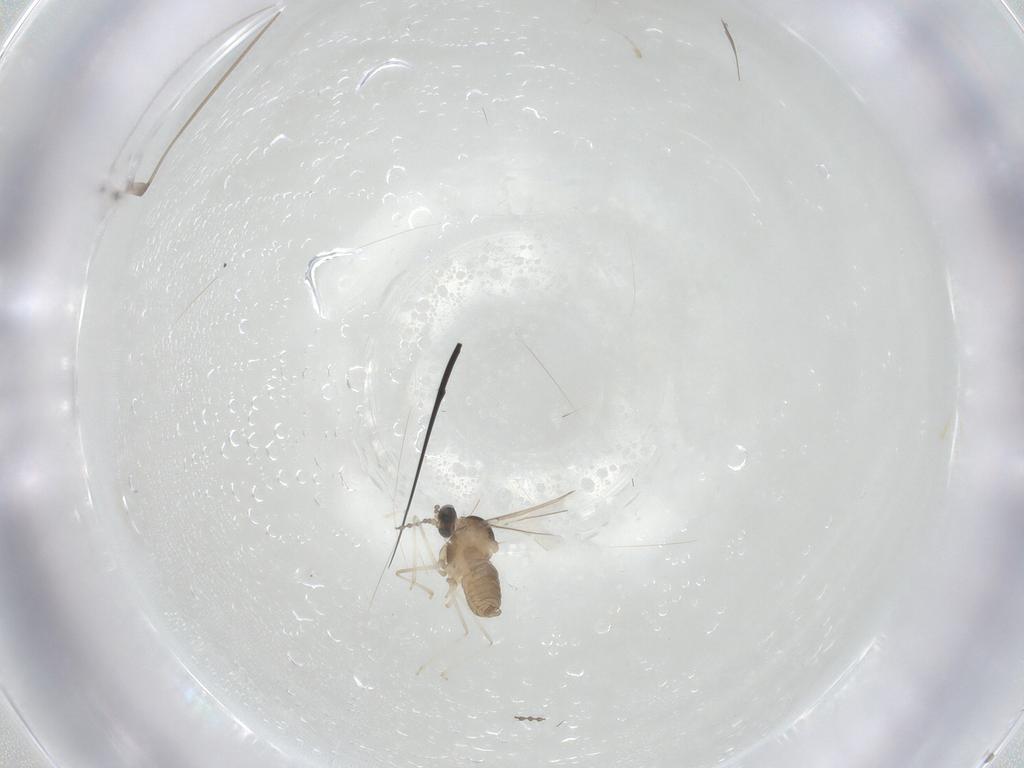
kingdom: Animalia
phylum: Arthropoda
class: Insecta
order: Diptera
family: Cecidomyiidae
